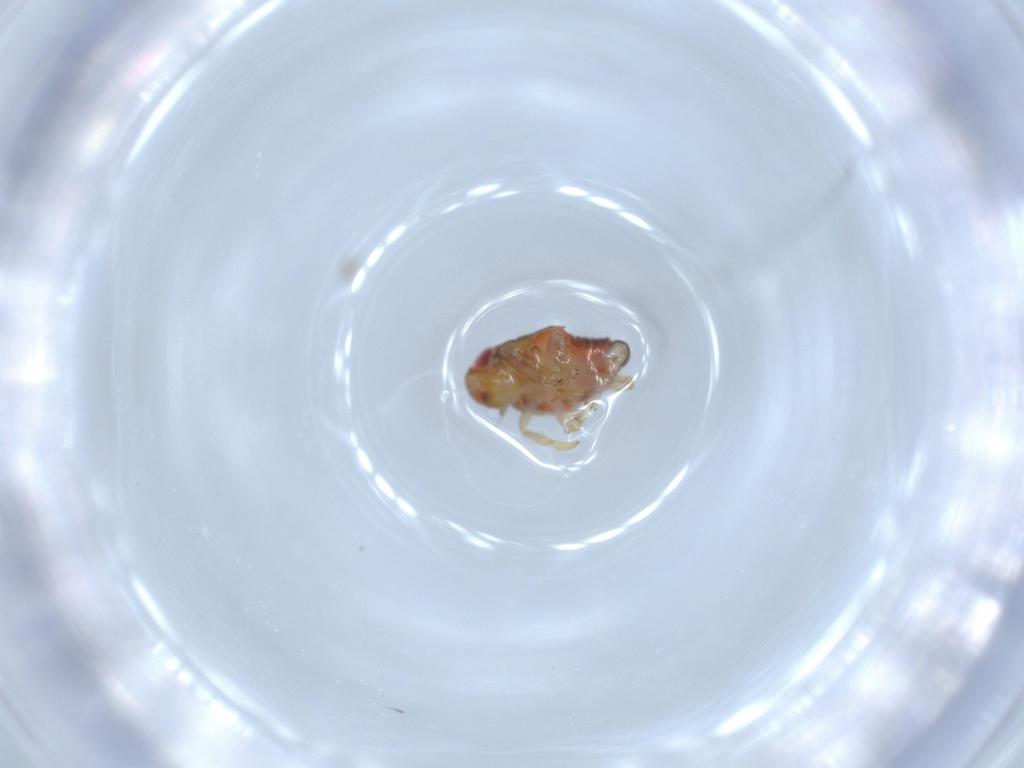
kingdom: Animalia
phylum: Arthropoda
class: Insecta
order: Hemiptera
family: Issidae
